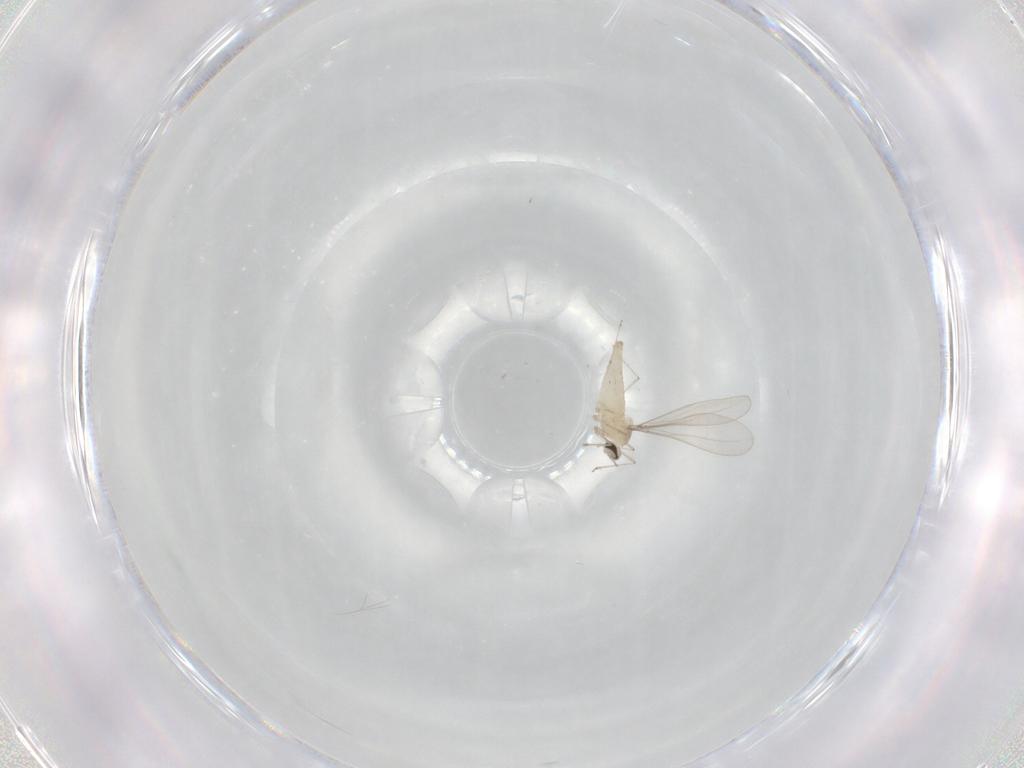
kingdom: Animalia
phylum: Arthropoda
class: Insecta
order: Diptera
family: Cecidomyiidae
